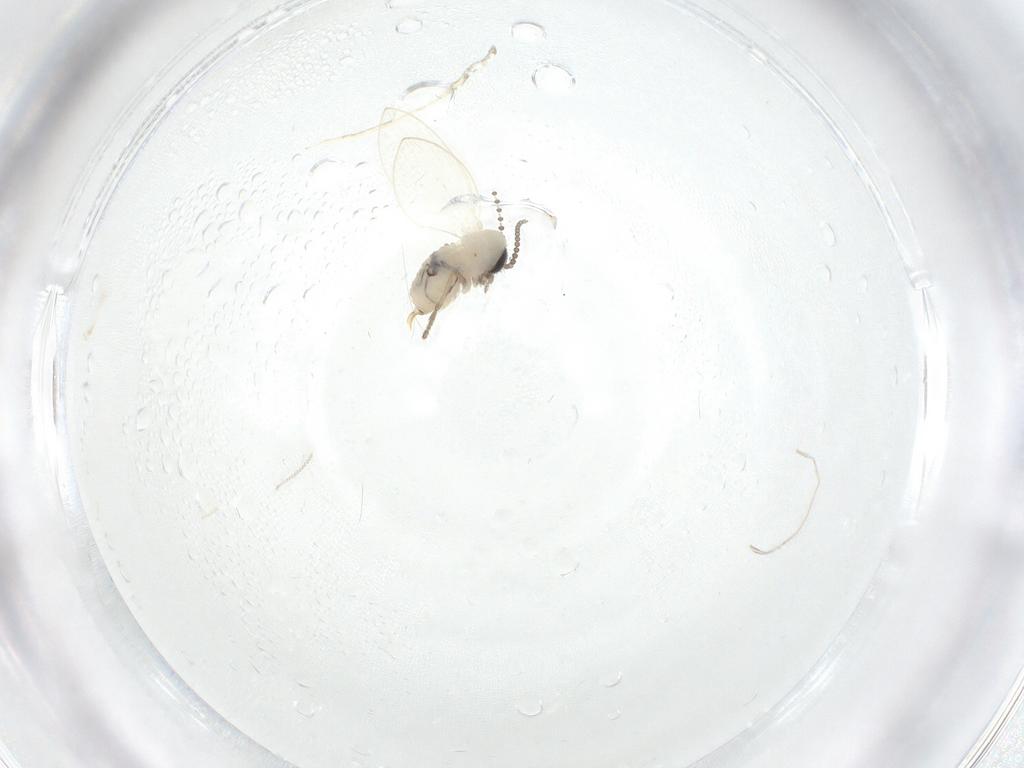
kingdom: Animalia
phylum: Arthropoda
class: Insecta
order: Diptera
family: Psychodidae
